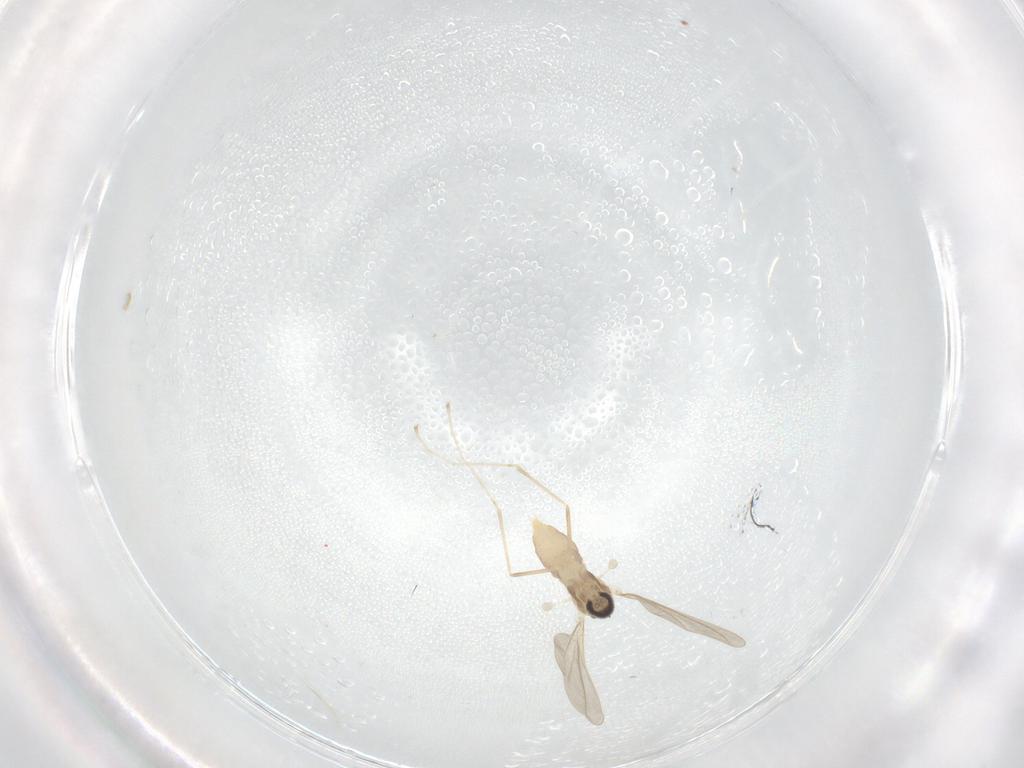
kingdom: Animalia
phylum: Arthropoda
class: Insecta
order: Diptera
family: Cecidomyiidae
